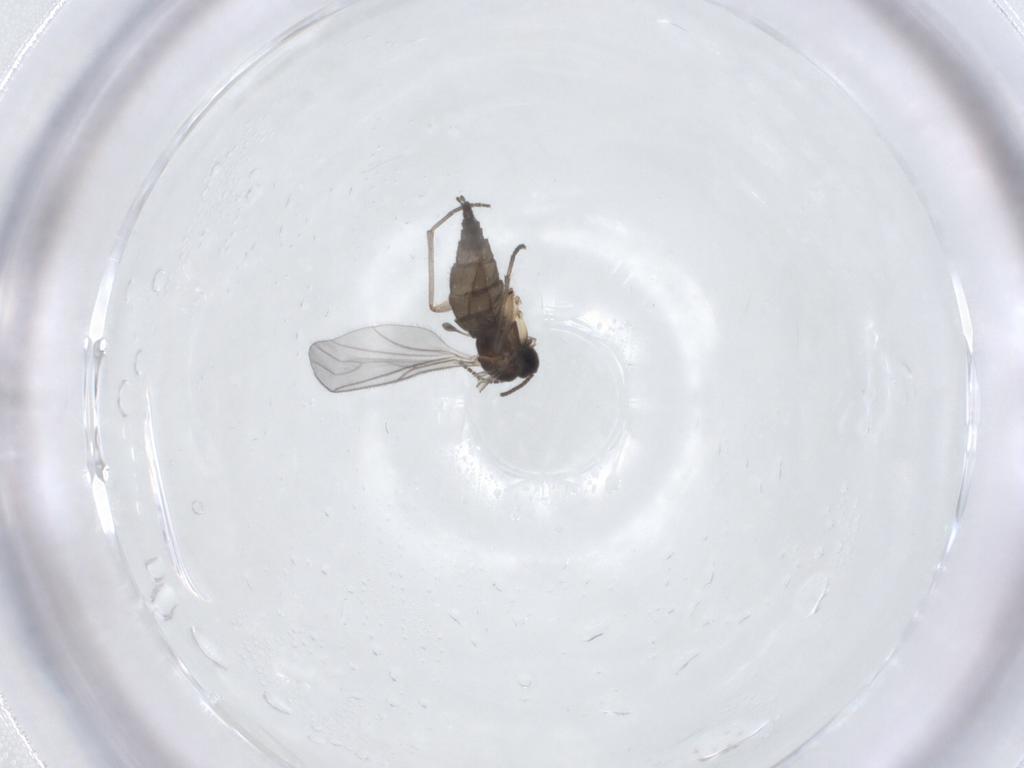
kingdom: Animalia
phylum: Arthropoda
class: Insecta
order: Diptera
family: Sciaridae
